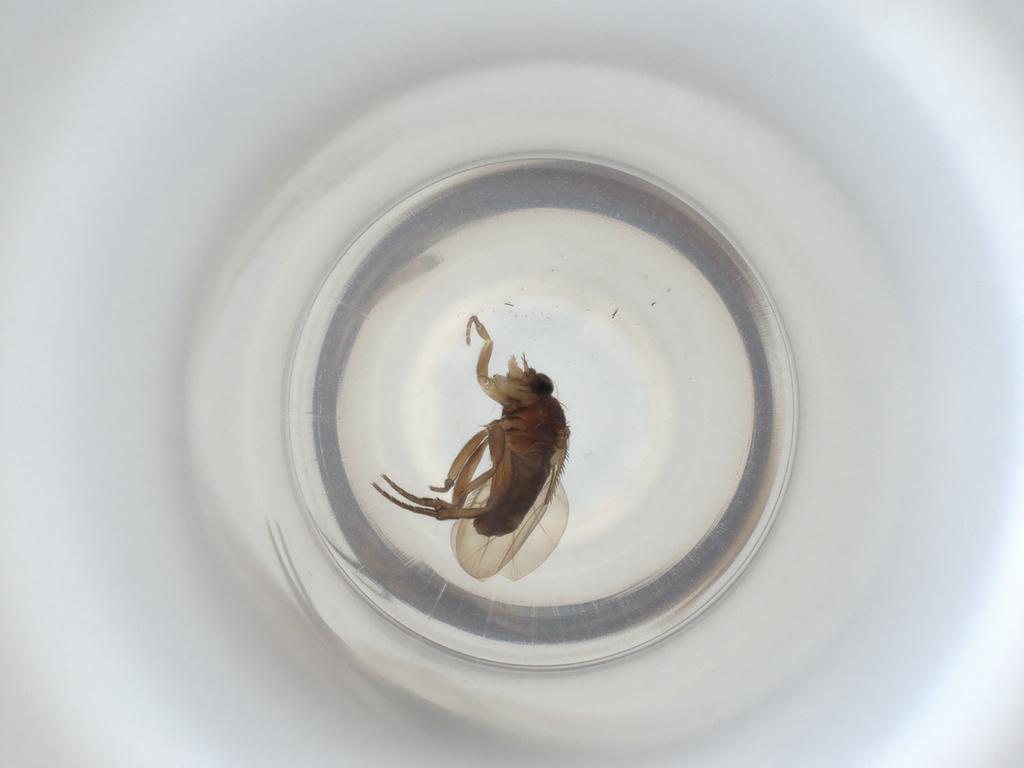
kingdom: Animalia
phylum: Arthropoda
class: Insecta
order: Diptera
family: Phoridae
